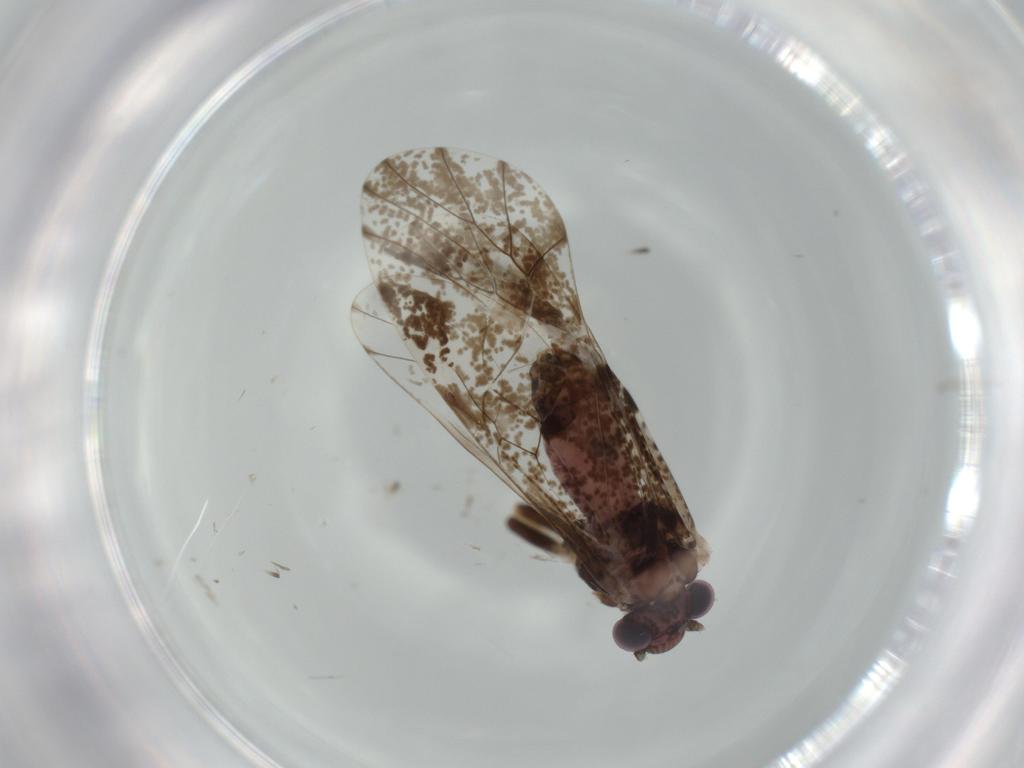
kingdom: Animalia
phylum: Arthropoda
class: Insecta
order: Psocodea
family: Psocidae
